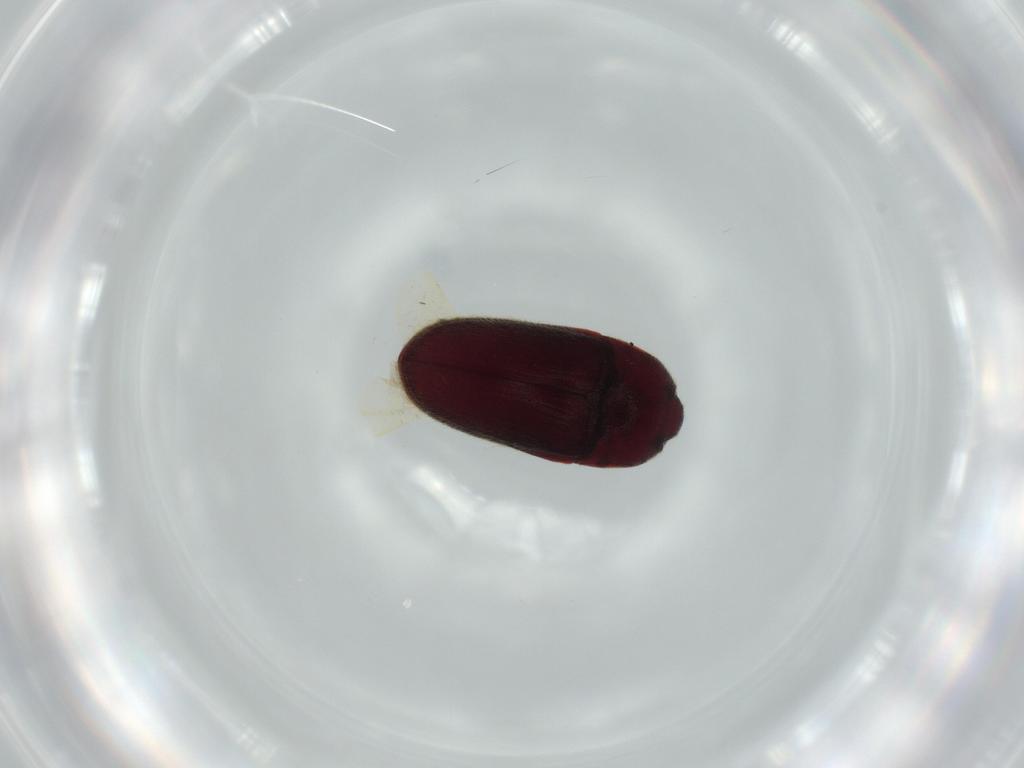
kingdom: Animalia
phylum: Arthropoda
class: Insecta
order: Coleoptera
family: Throscidae
